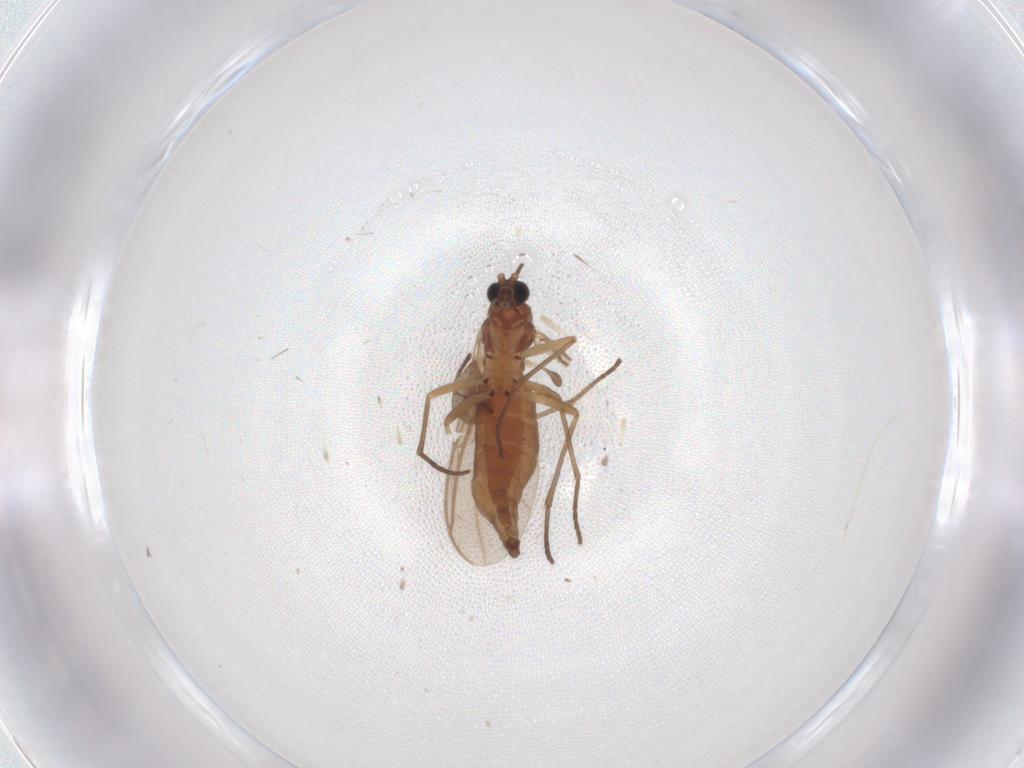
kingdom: Animalia
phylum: Arthropoda
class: Insecta
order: Diptera
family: Sciaridae
